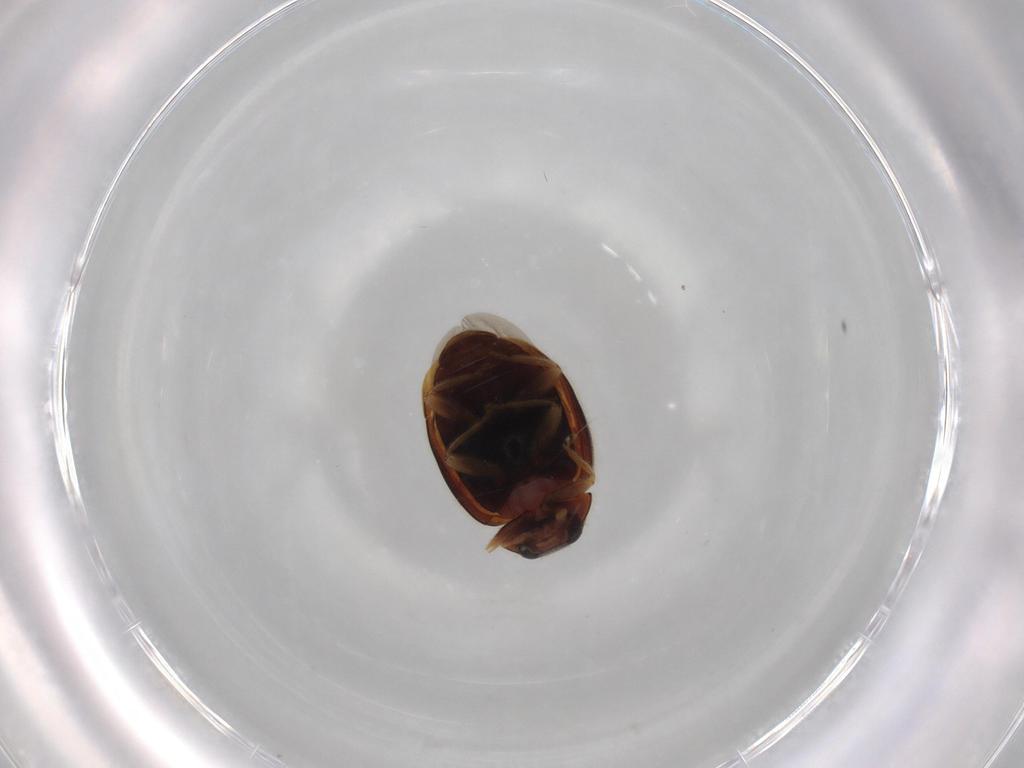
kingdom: Animalia
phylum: Arthropoda
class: Insecta
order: Coleoptera
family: Coccinellidae
